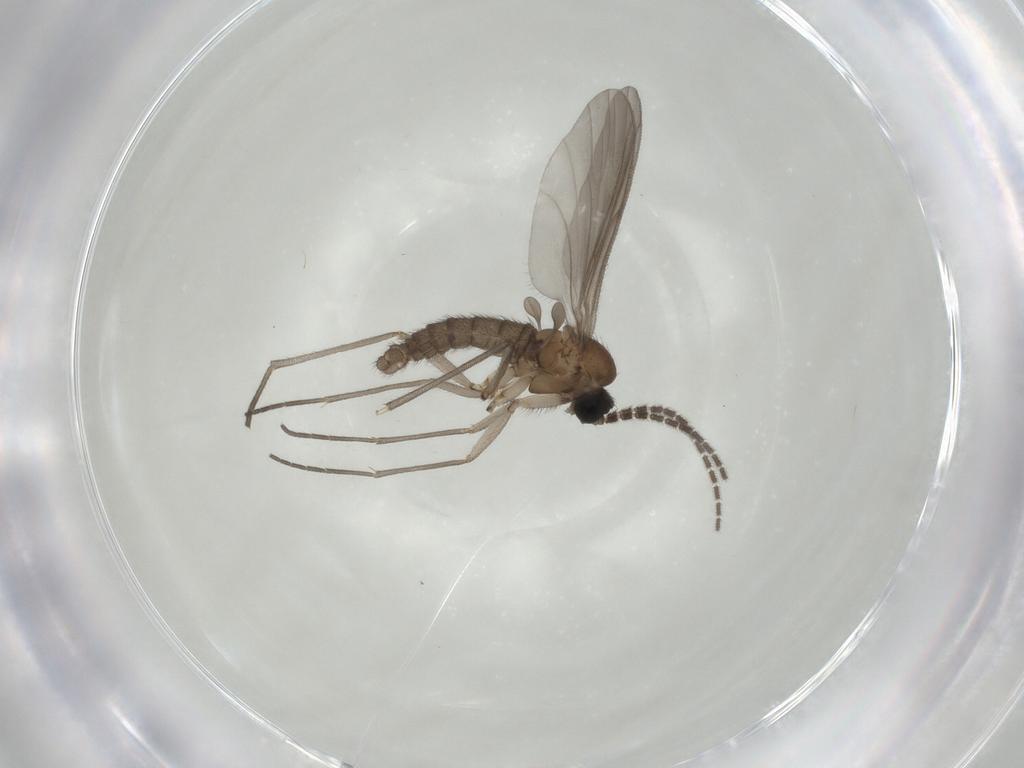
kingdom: Animalia
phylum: Arthropoda
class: Insecta
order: Diptera
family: Sciaridae
